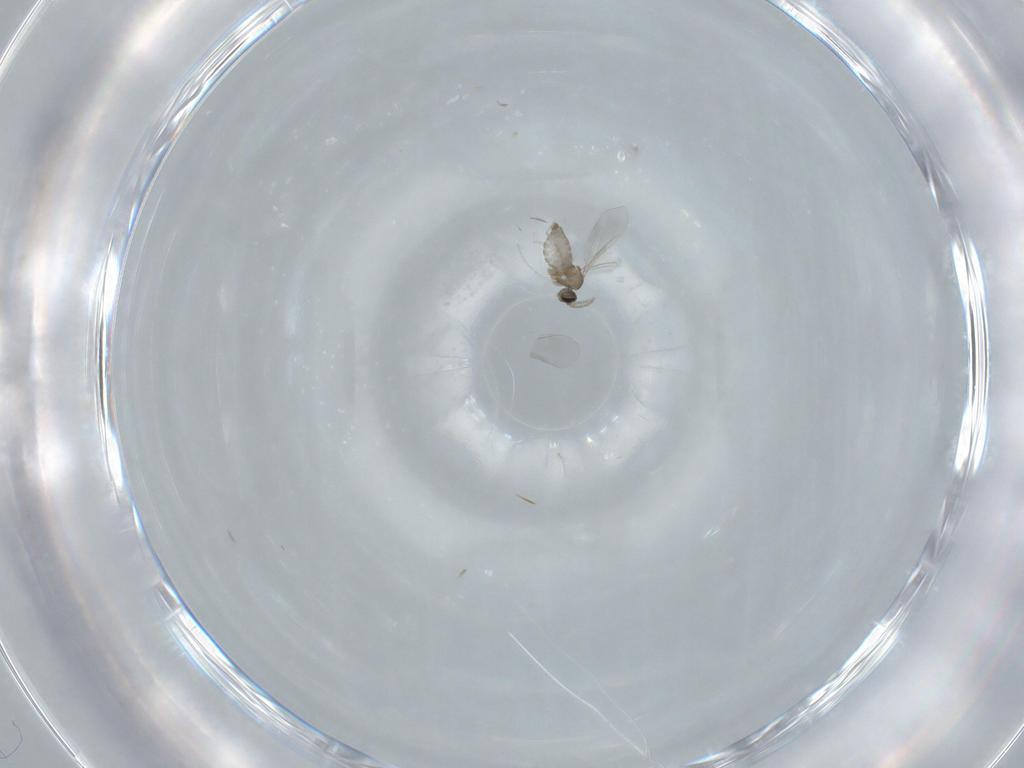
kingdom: Animalia
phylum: Arthropoda
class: Insecta
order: Diptera
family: Cecidomyiidae
